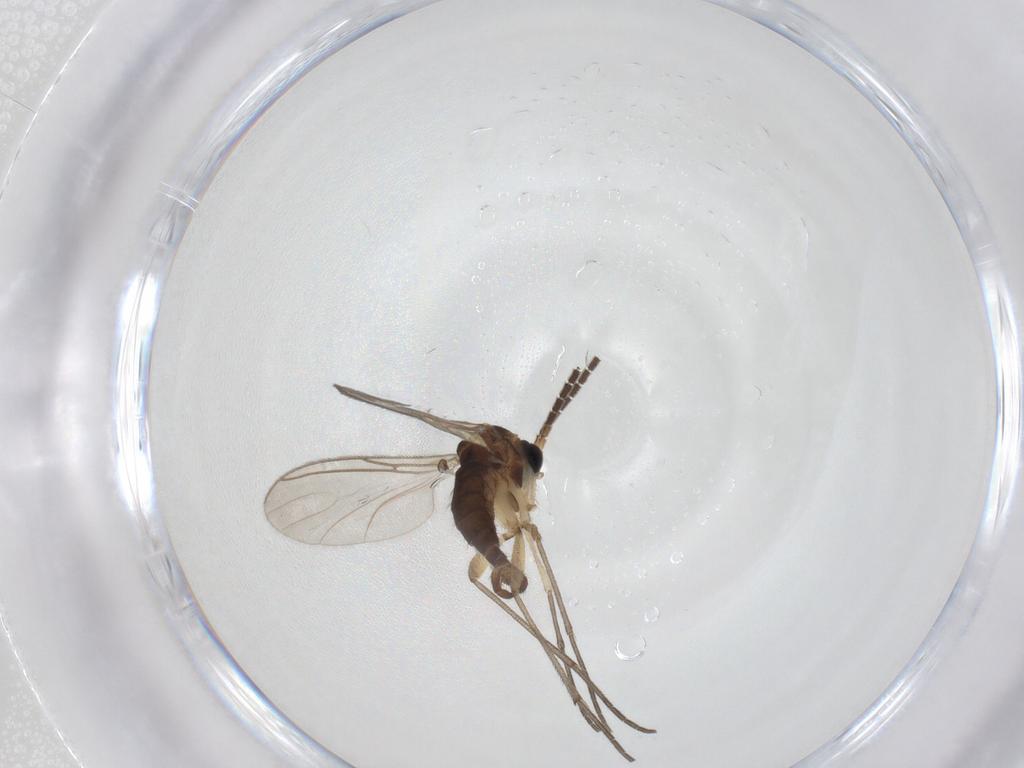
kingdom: Animalia
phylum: Arthropoda
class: Insecta
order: Diptera
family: Sciaridae
